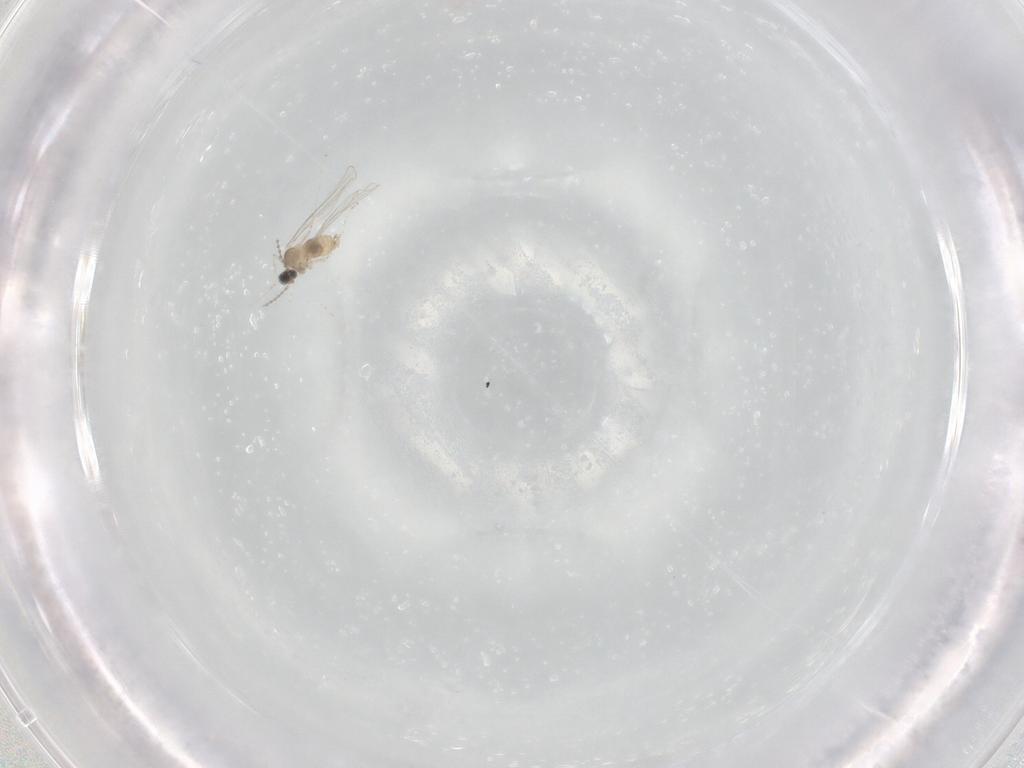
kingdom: Animalia
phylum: Arthropoda
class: Insecta
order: Diptera
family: Cecidomyiidae
